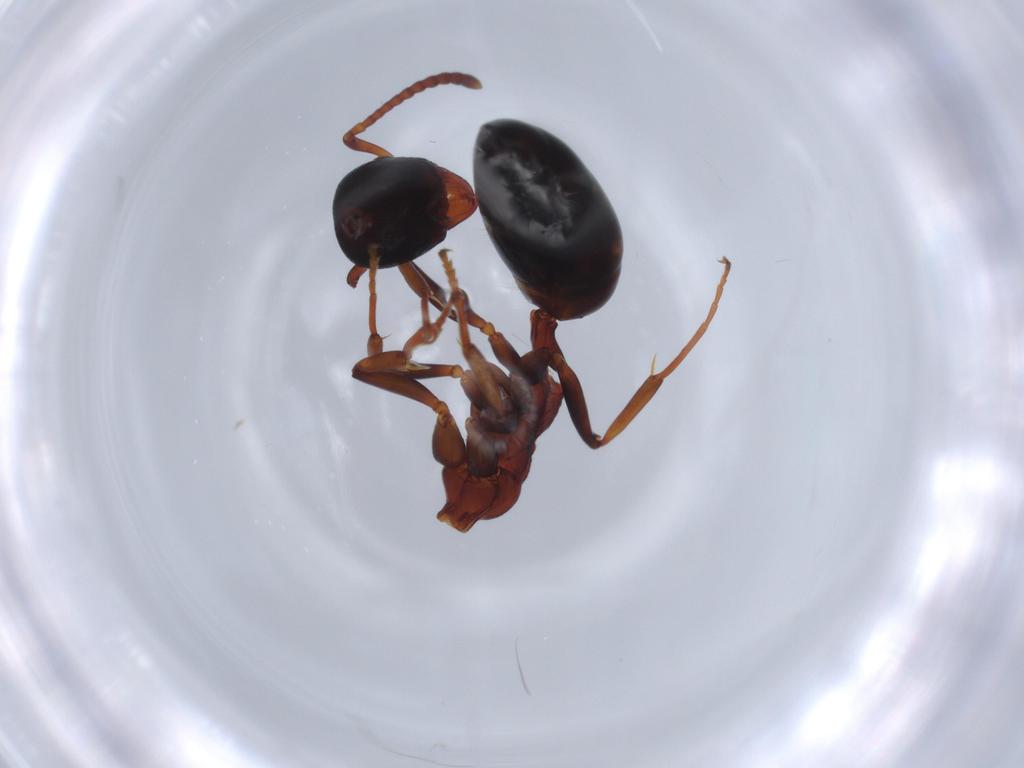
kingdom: Animalia
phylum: Arthropoda
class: Insecta
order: Hymenoptera
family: Formicidae
